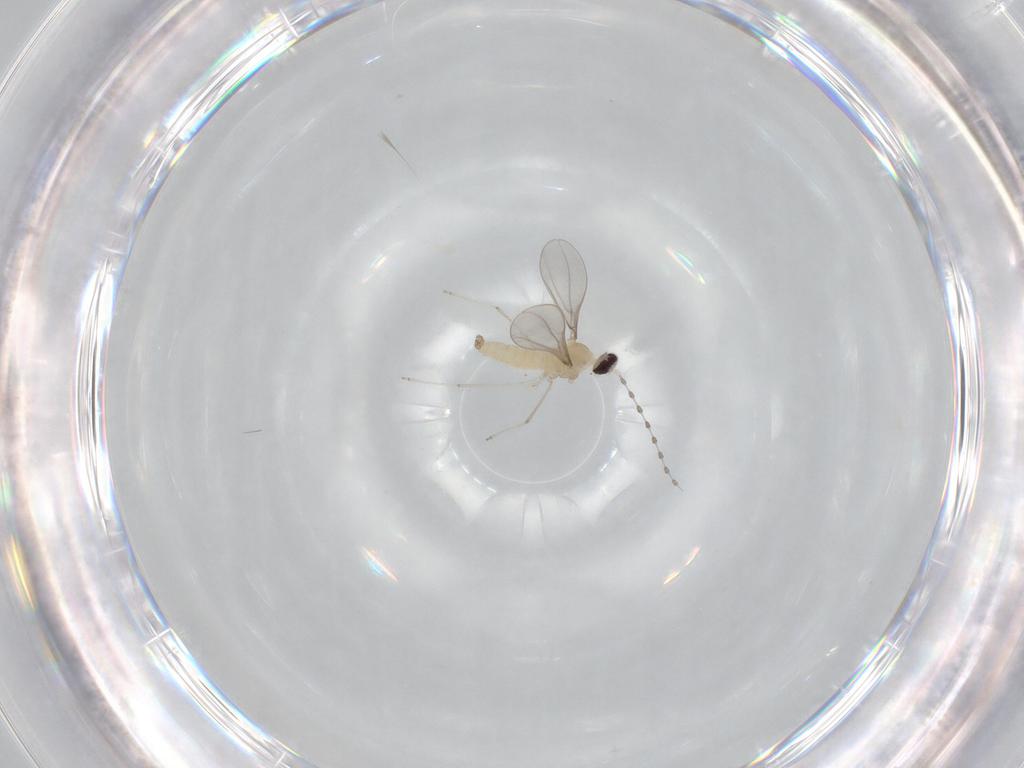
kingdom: Animalia
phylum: Arthropoda
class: Insecta
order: Diptera
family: Cecidomyiidae
